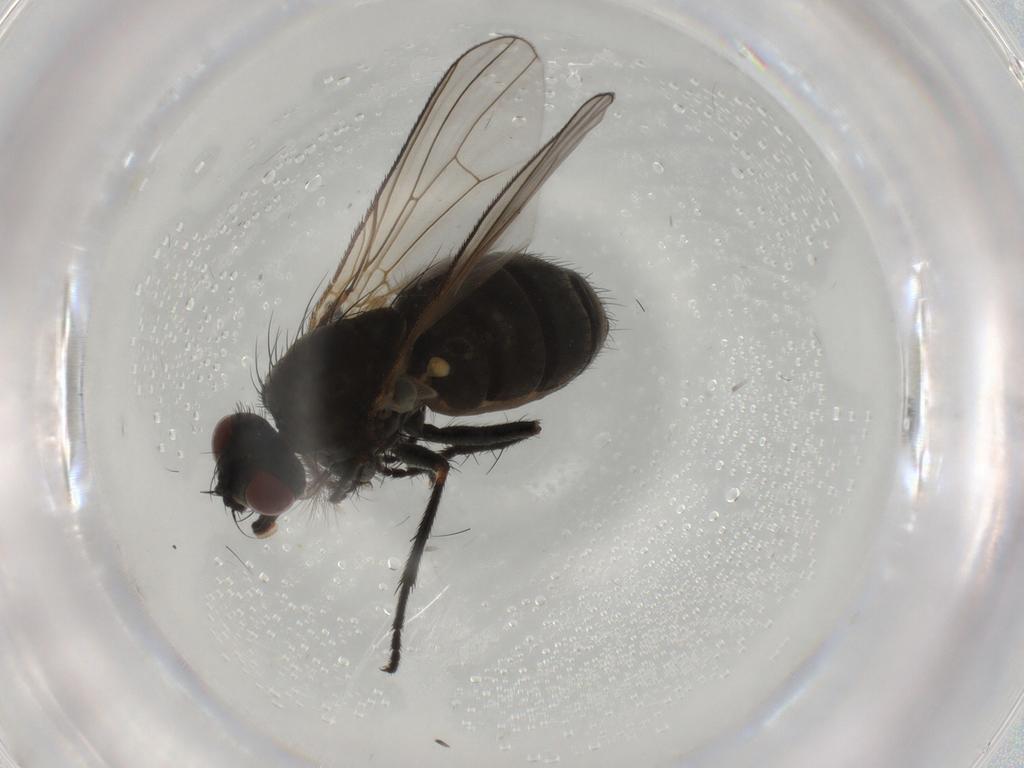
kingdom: Animalia
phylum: Arthropoda
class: Insecta
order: Diptera
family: Muscidae
